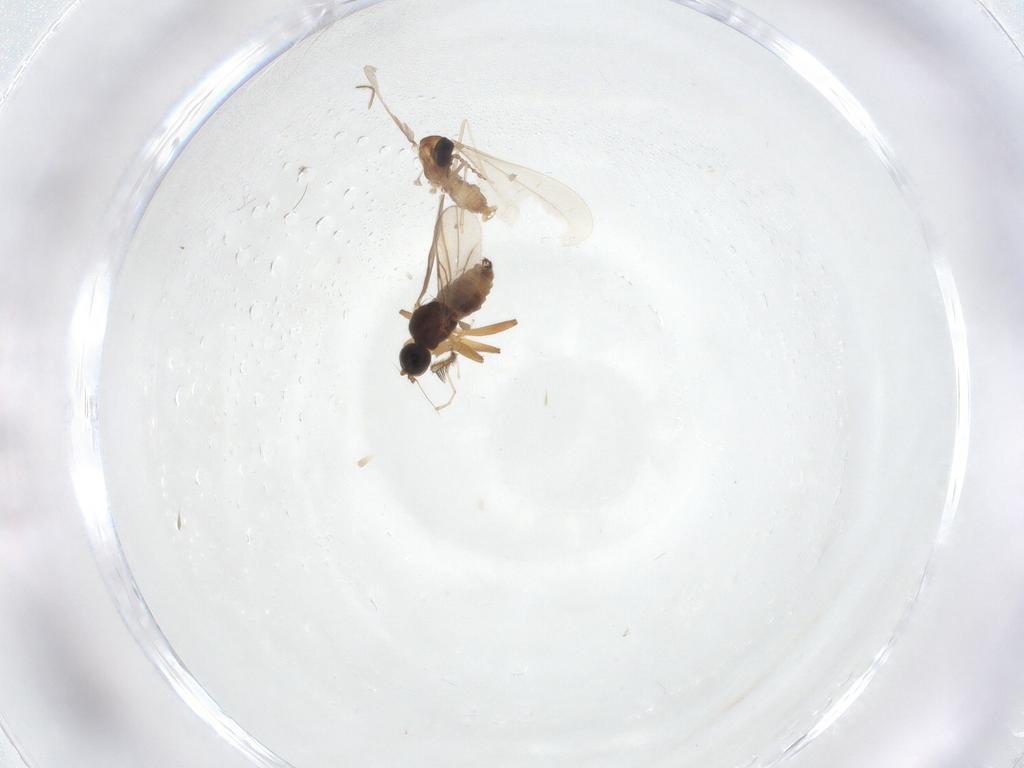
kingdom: Animalia
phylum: Arthropoda
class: Insecta
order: Diptera
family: Hybotidae
